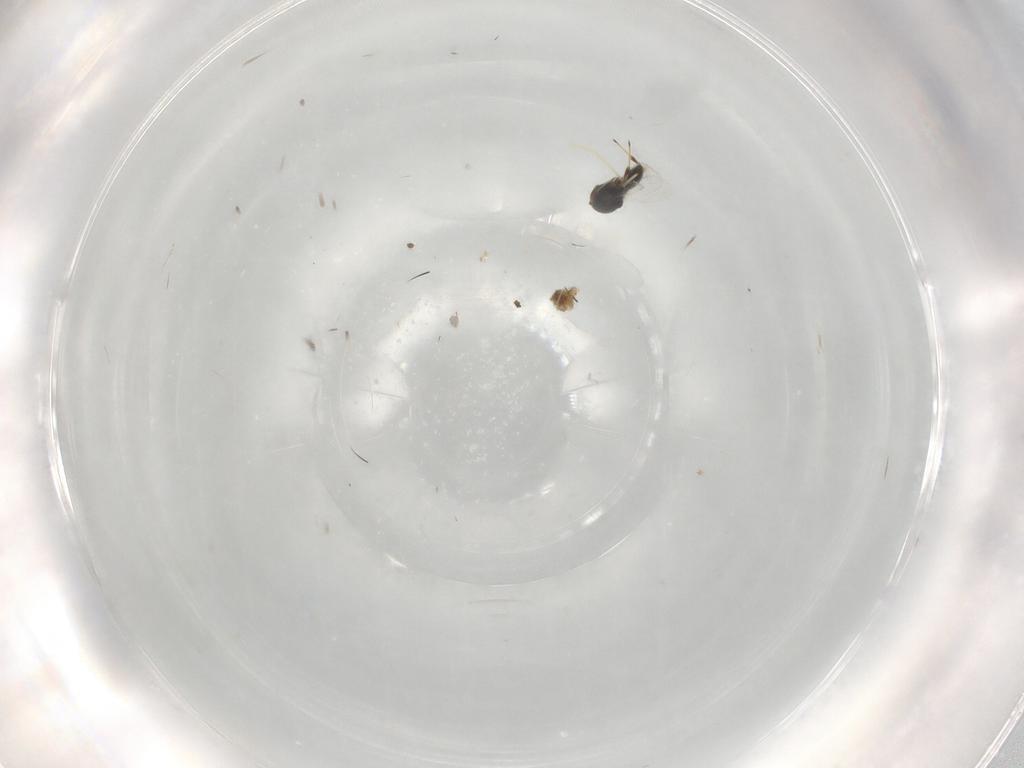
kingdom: Animalia
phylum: Arthropoda
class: Insecta
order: Hymenoptera
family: Platygastridae
